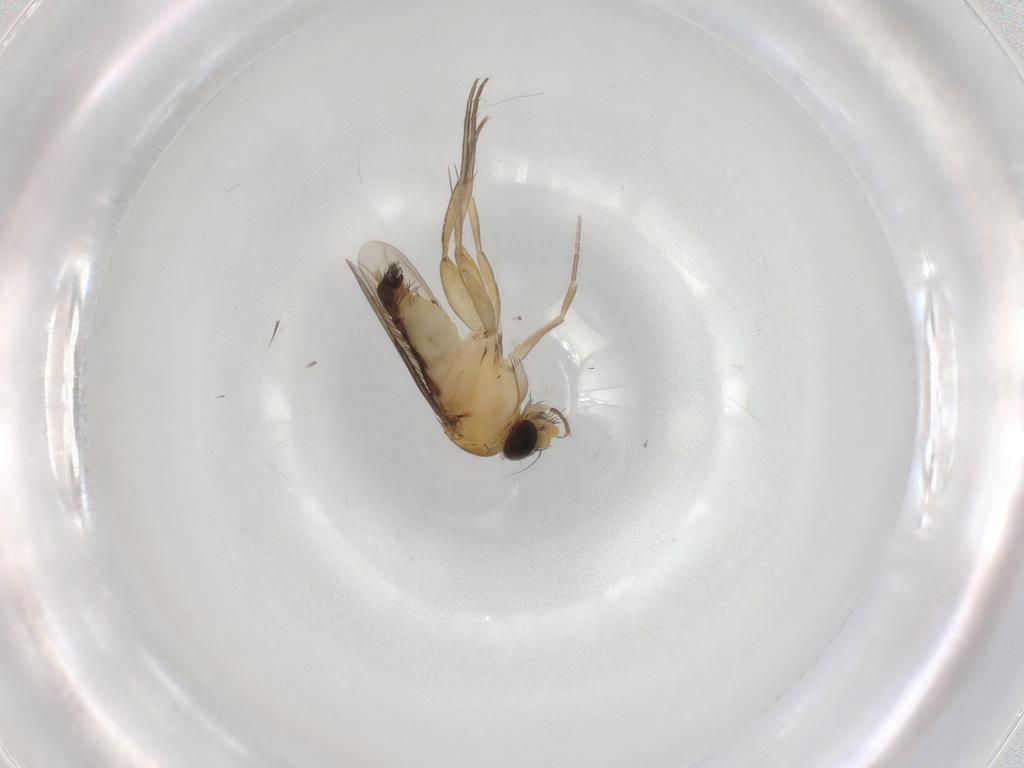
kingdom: Animalia
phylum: Arthropoda
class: Insecta
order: Diptera
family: Phoridae
